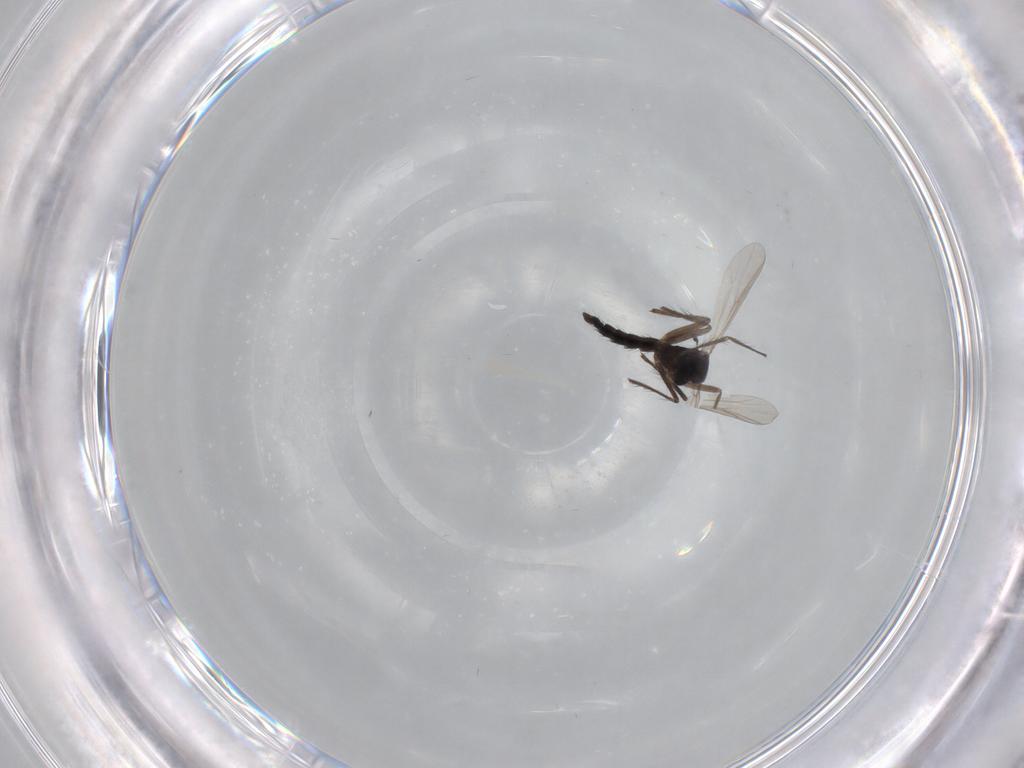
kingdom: Animalia
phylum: Arthropoda
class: Insecta
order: Diptera
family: Chironomidae
